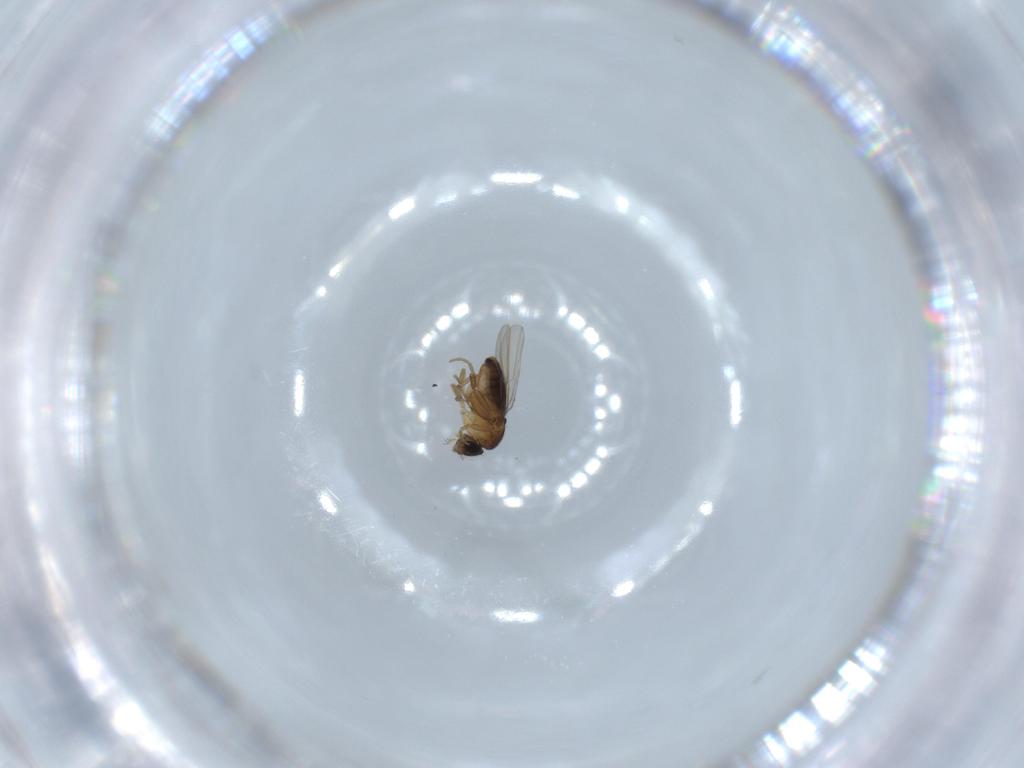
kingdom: Animalia
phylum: Arthropoda
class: Insecta
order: Diptera
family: Phoridae
